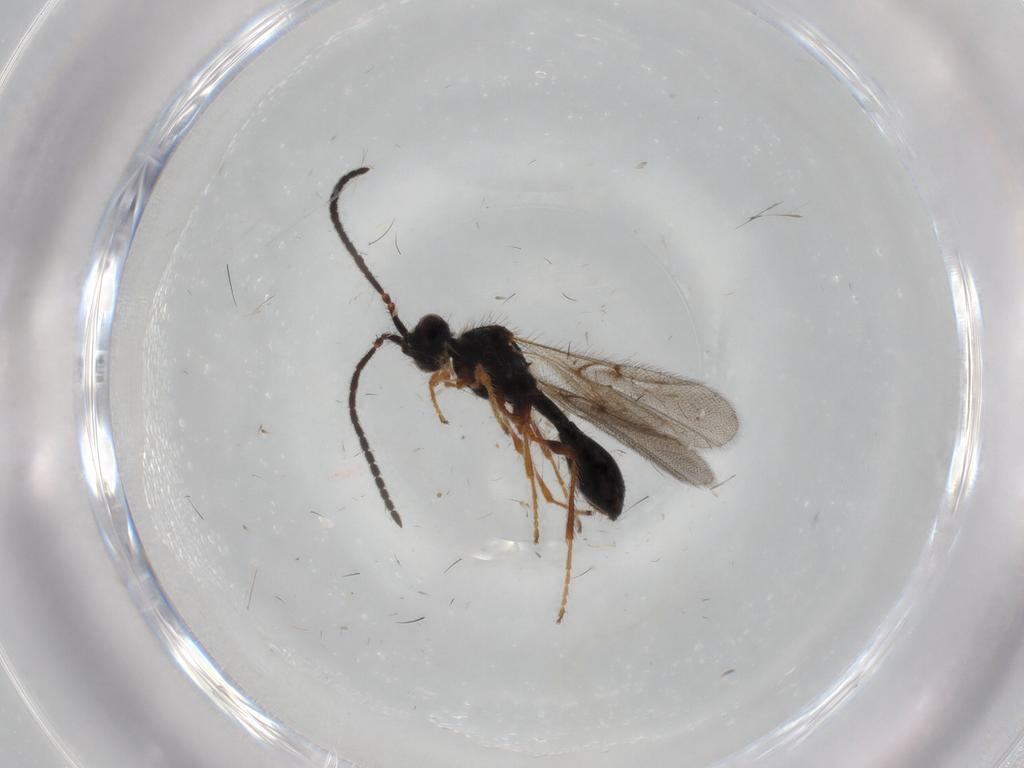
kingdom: Animalia
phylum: Arthropoda
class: Insecta
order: Hymenoptera
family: Diapriidae
